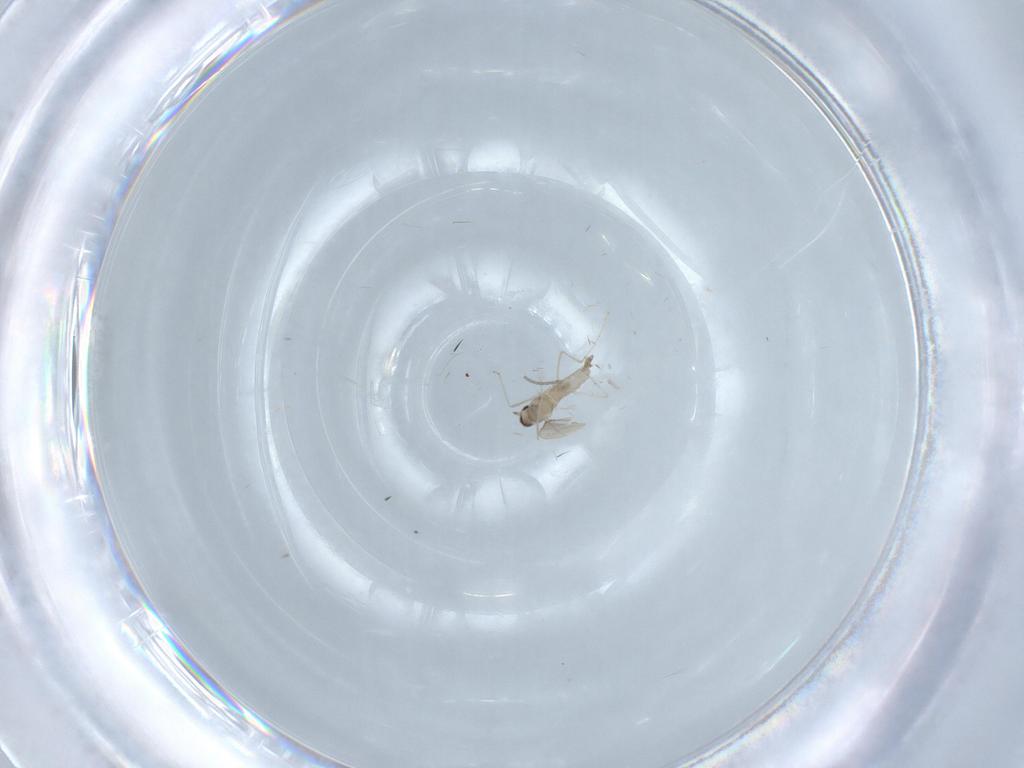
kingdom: Animalia
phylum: Arthropoda
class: Insecta
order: Diptera
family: Cecidomyiidae
